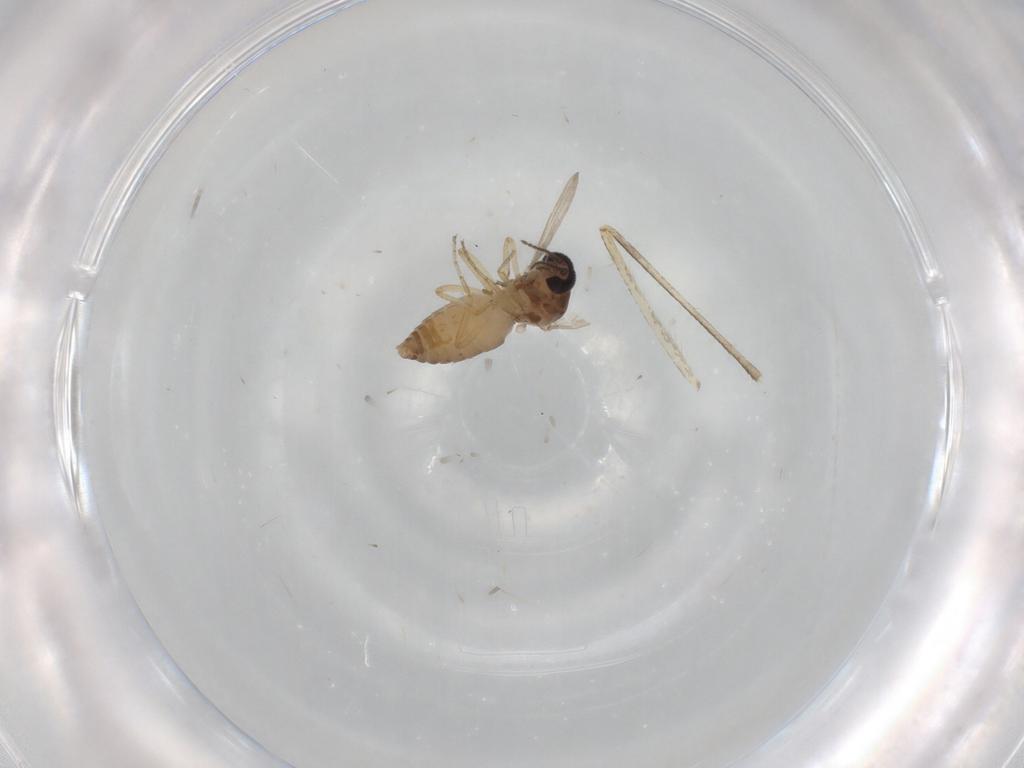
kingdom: Animalia
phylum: Arthropoda
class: Insecta
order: Diptera
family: Ceratopogonidae
